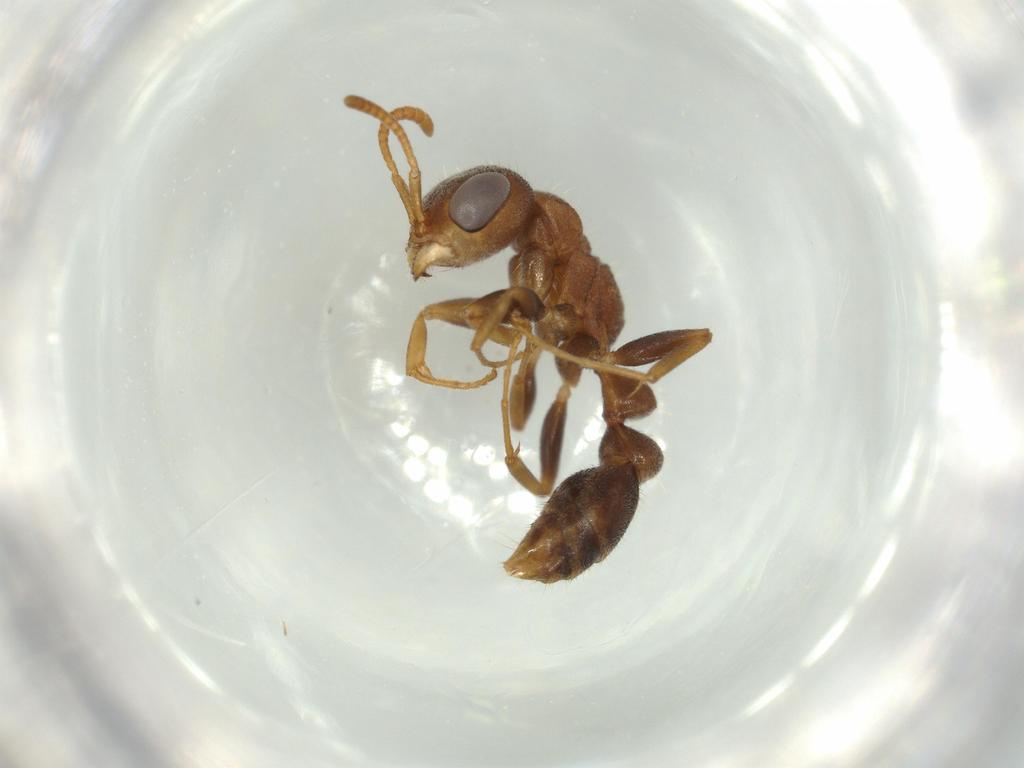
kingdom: Animalia
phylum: Arthropoda
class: Insecta
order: Hymenoptera
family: Formicidae
